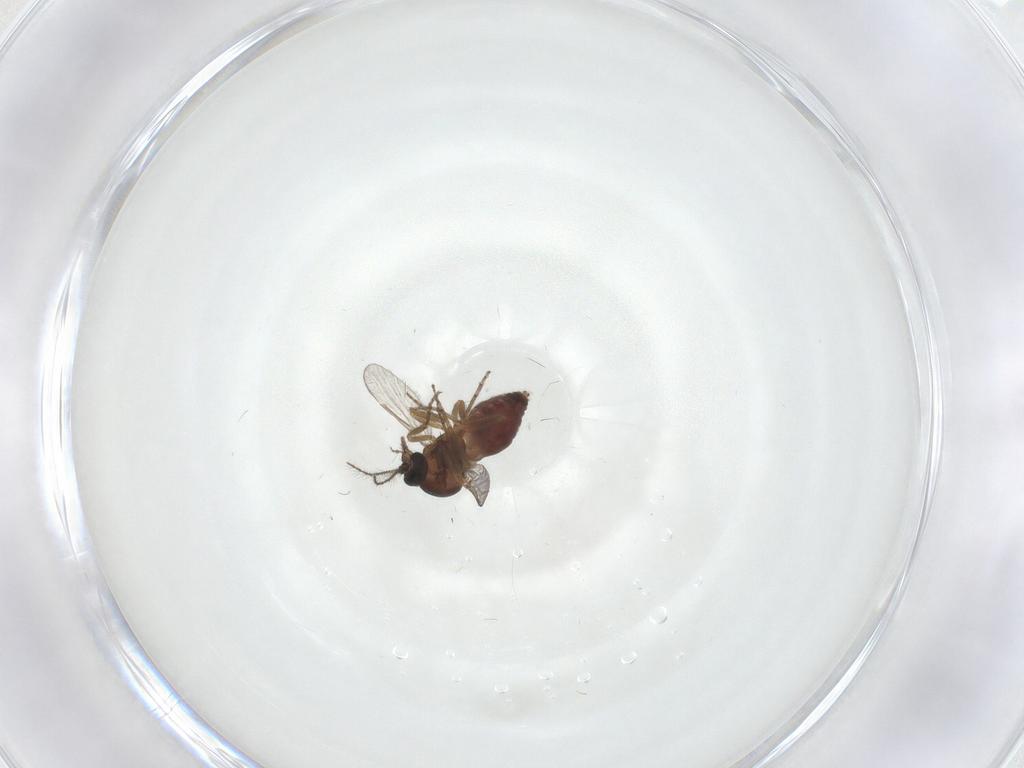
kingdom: Animalia
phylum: Arthropoda
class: Insecta
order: Diptera
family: Ceratopogonidae
